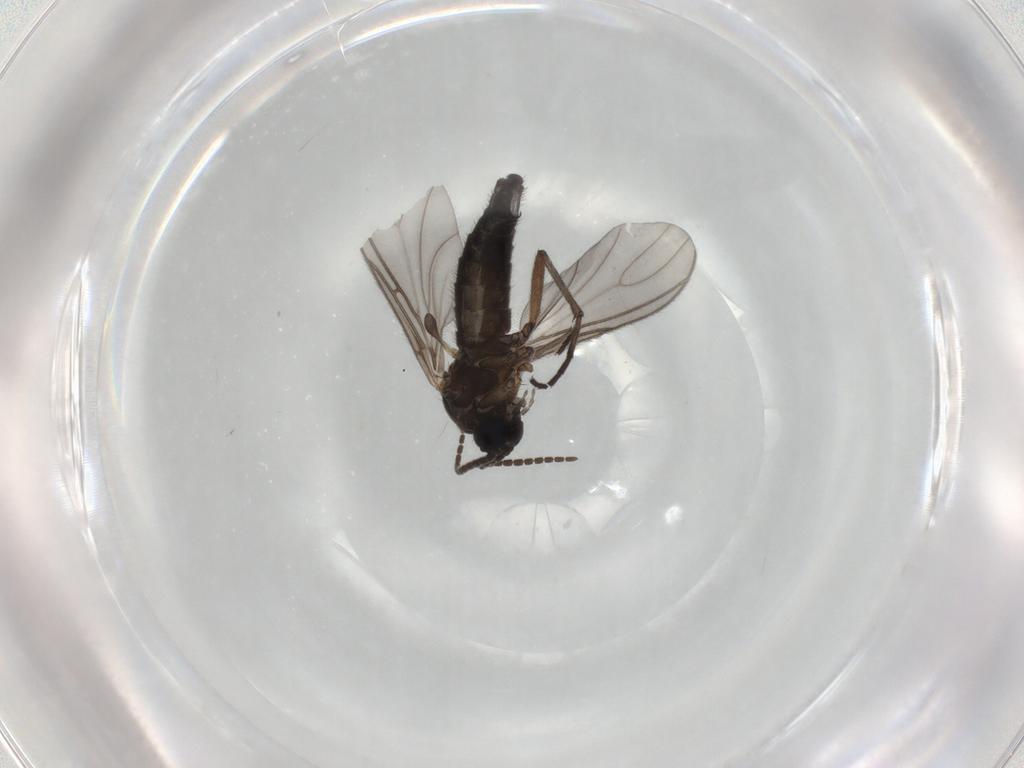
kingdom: Animalia
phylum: Arthropoda
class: Insecta
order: Diptera
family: Sciaridae
